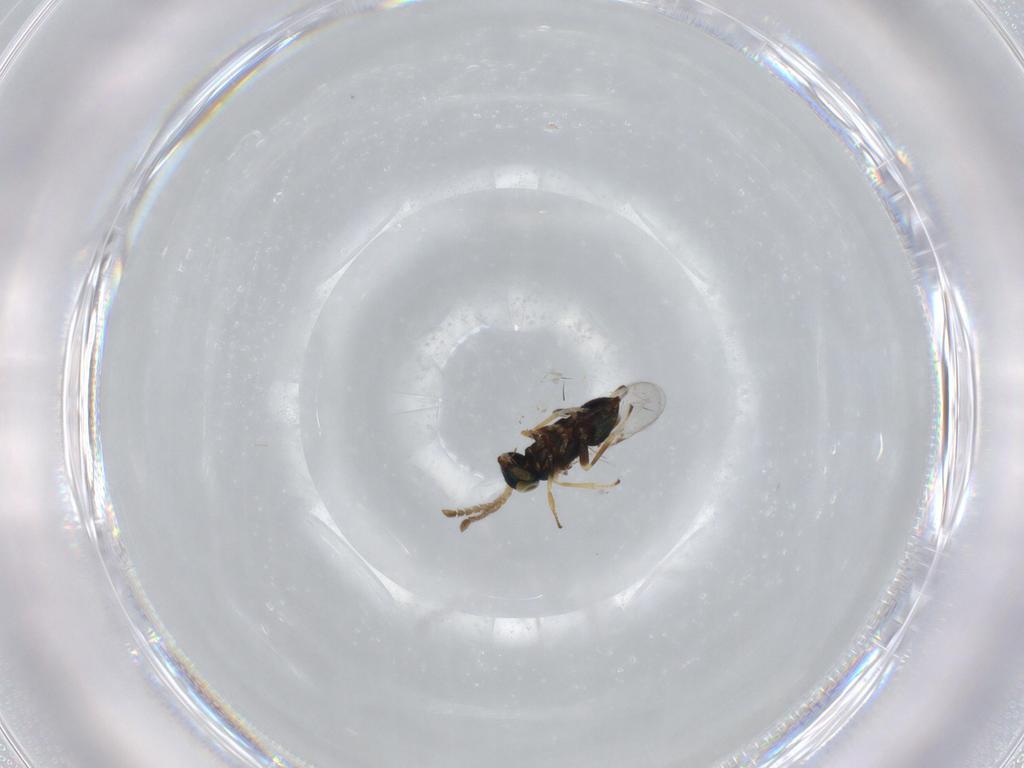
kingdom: Animalia
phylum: Arthropoda
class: Insecta
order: Hymenoptera
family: Megachilidae
